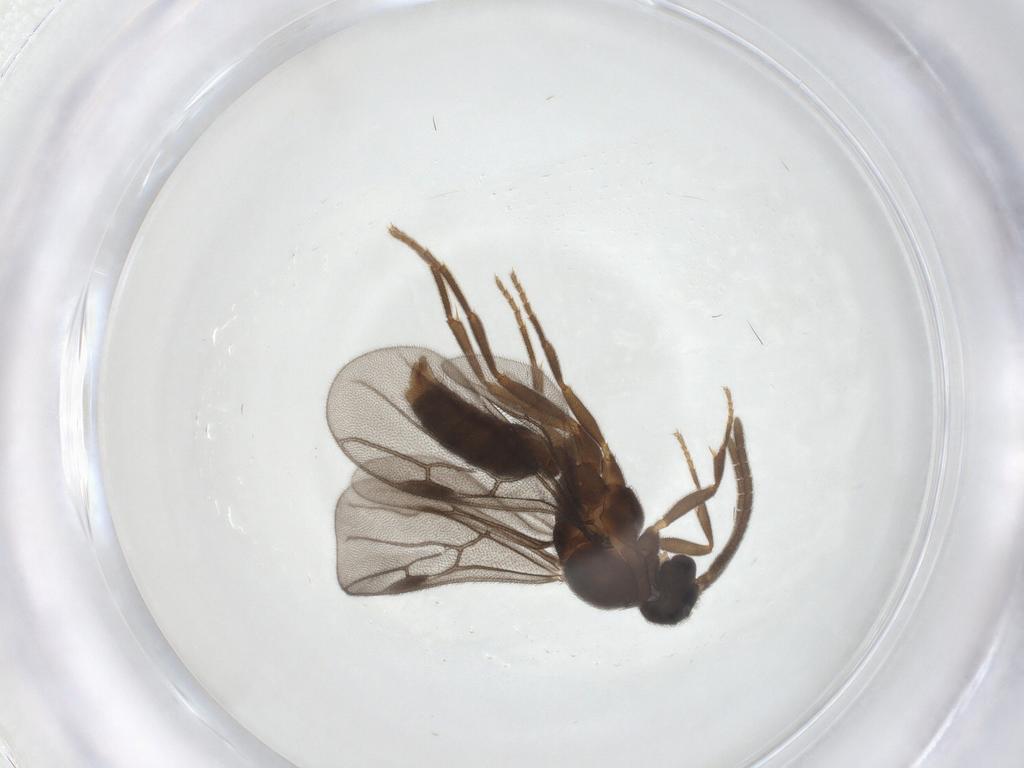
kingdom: Animalia
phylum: Arthropoda
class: Insecta
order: Hymenoptera
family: Formicidae
